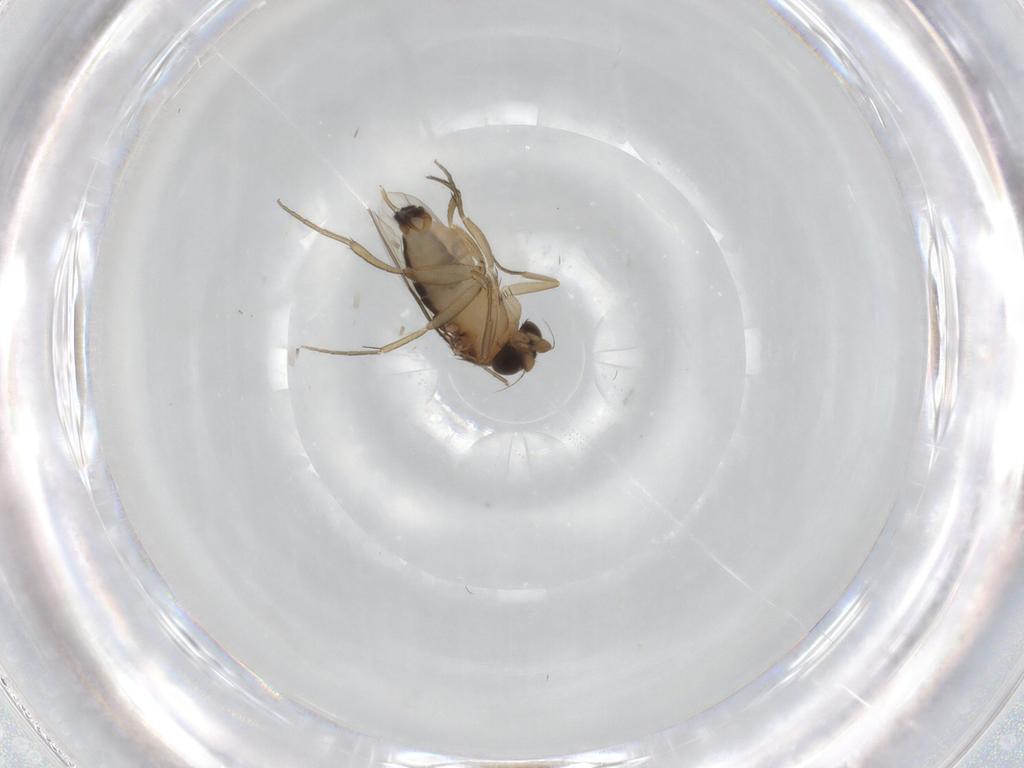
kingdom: Animalia
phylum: Arthropoda
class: Insecta
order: Diptera
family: Phoridae
